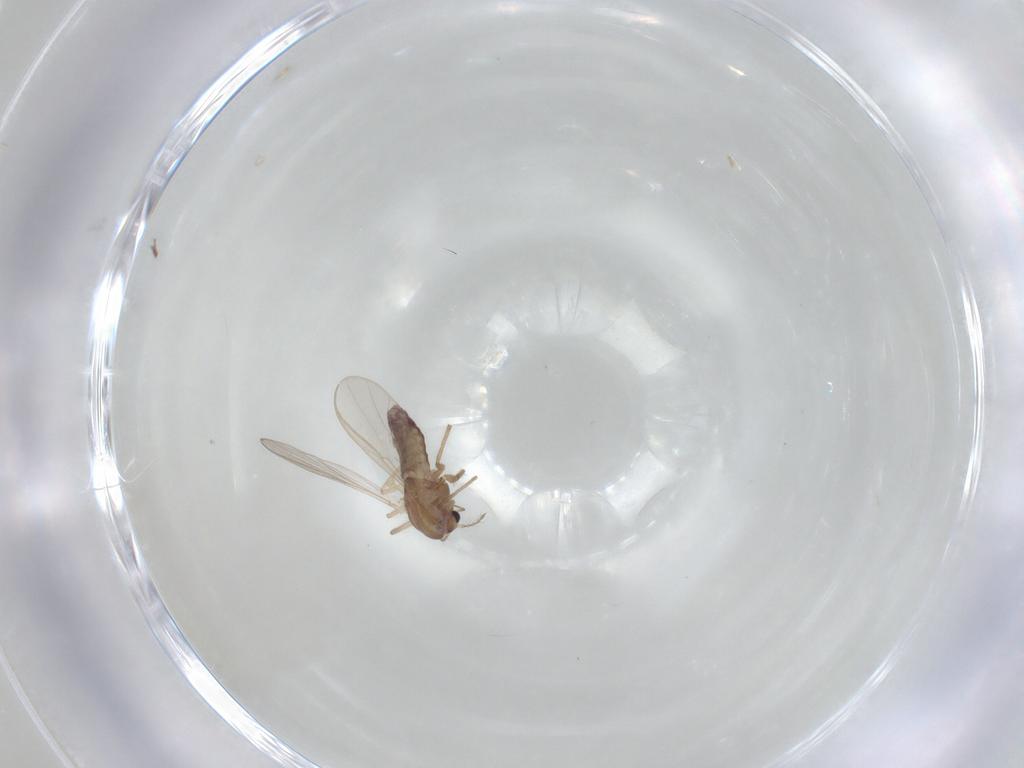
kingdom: Animalia
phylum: Arthropoda
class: Insecta
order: Diptera
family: Chironomidae
